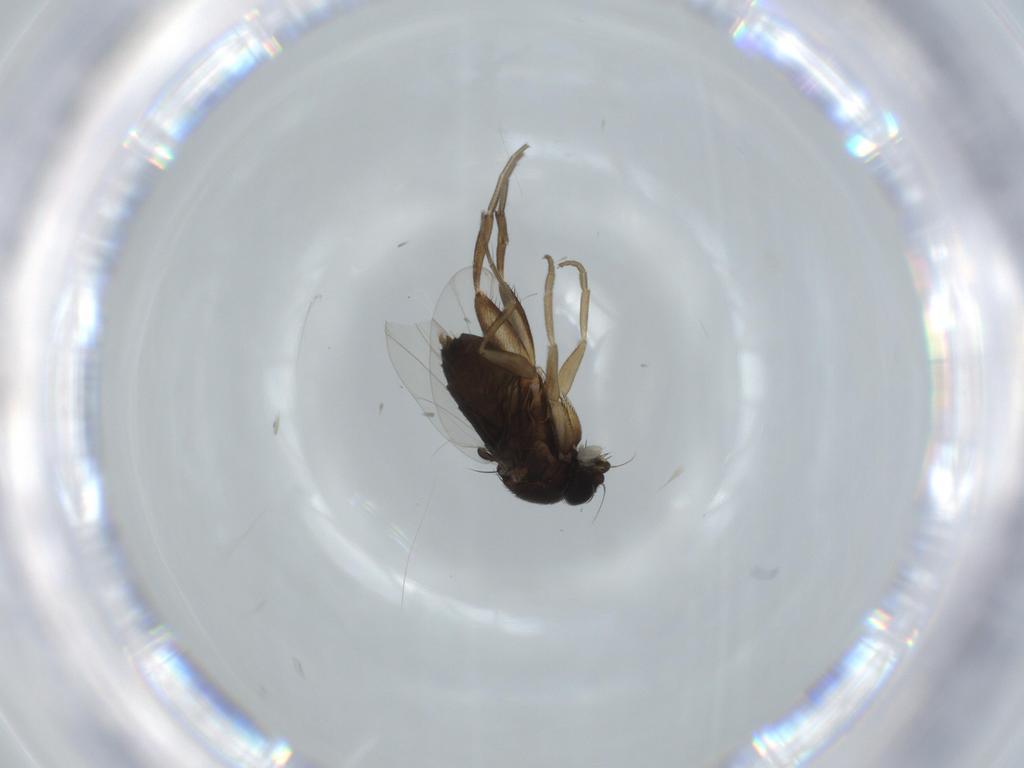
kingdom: Animalia
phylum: Arthropoda
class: Insecta
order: Diptera
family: Phoridae
